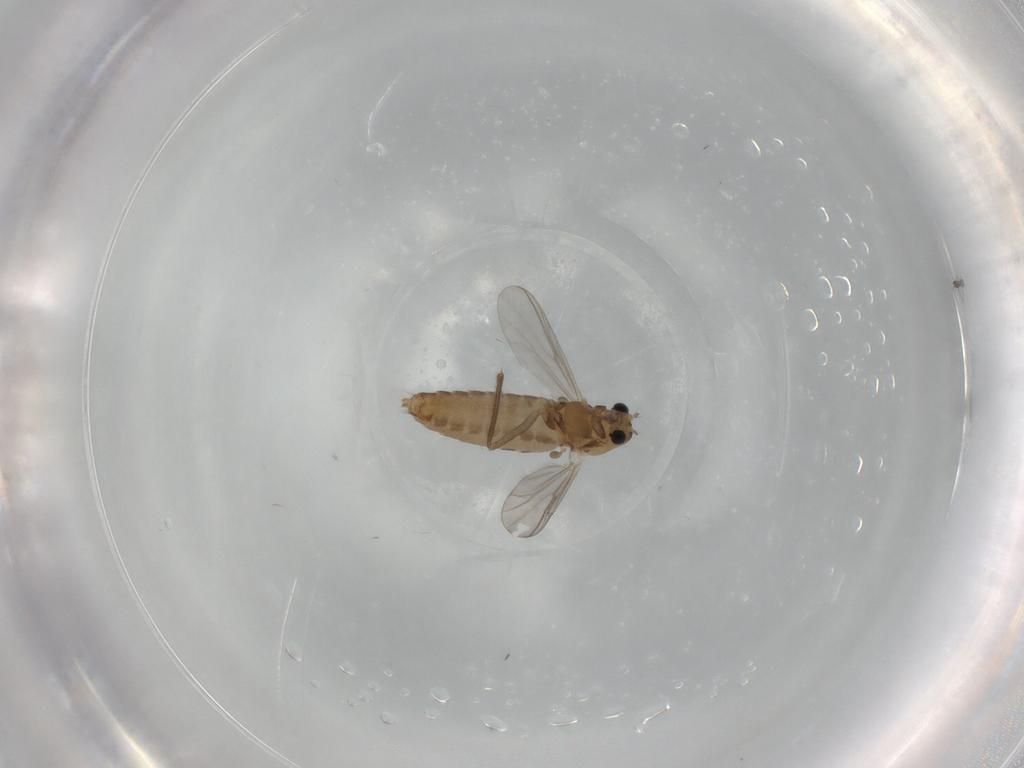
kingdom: Animalia
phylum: Arthropoda
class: Insecta
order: Diptera
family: Chironomidae
